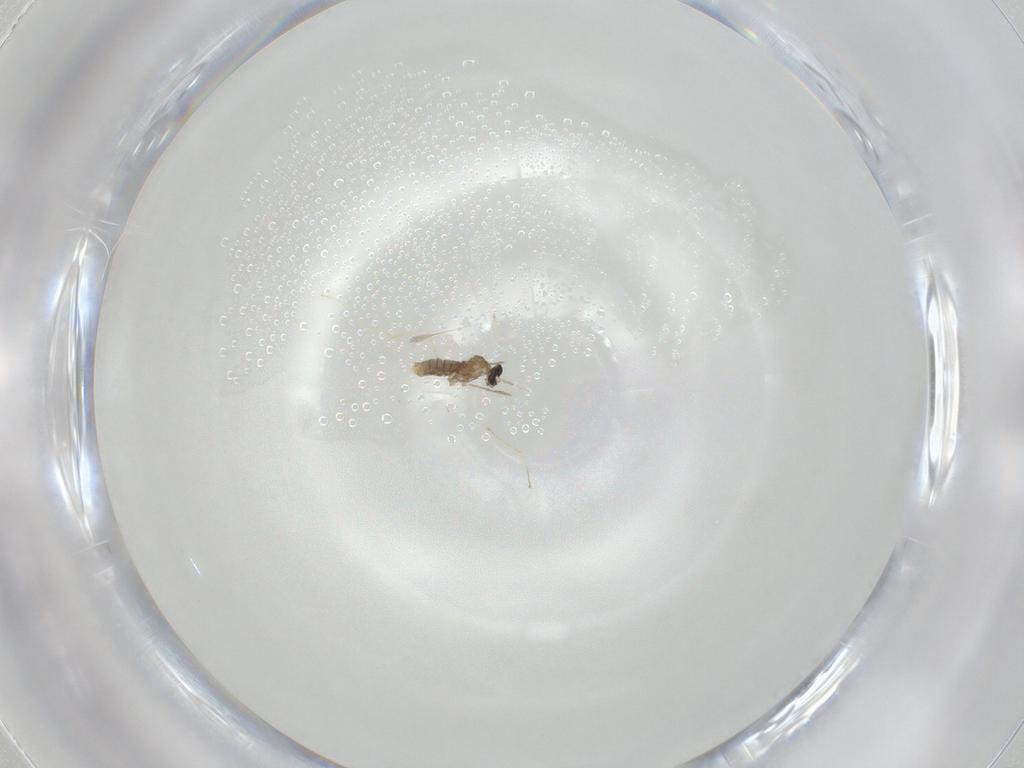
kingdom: Animalia
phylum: Arthropoda
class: Insecta
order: Diptera
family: Cecidomyiidae
